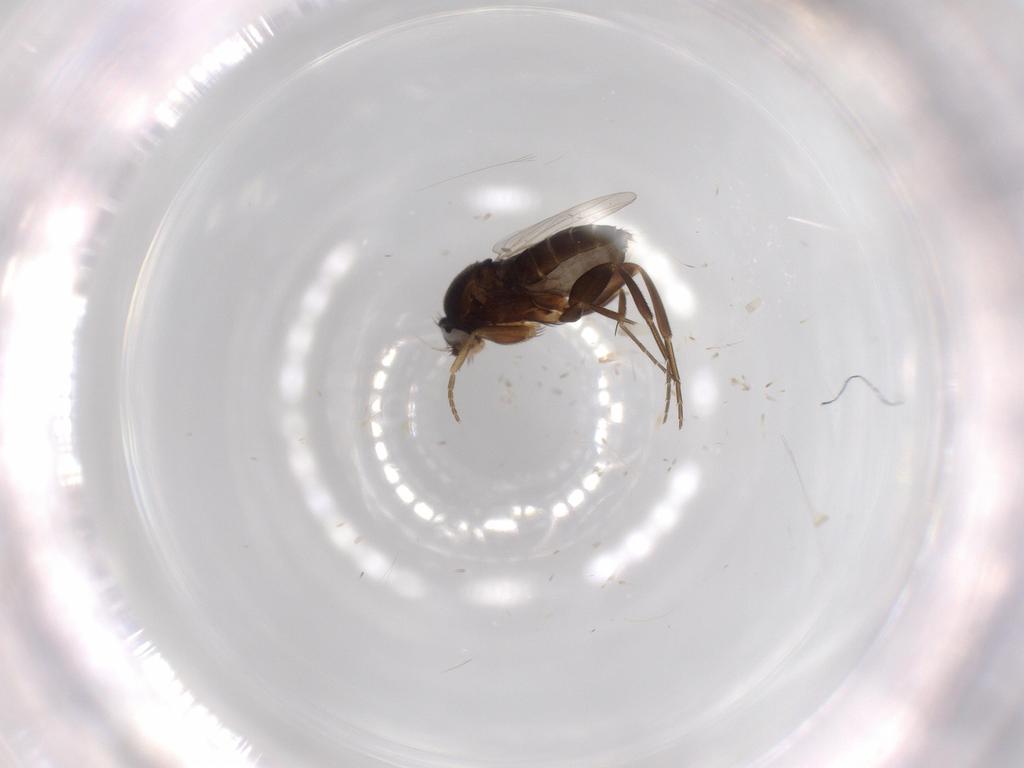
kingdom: Animalia
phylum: Arthropoda
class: Insecta
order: Diptera
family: Phoridae
